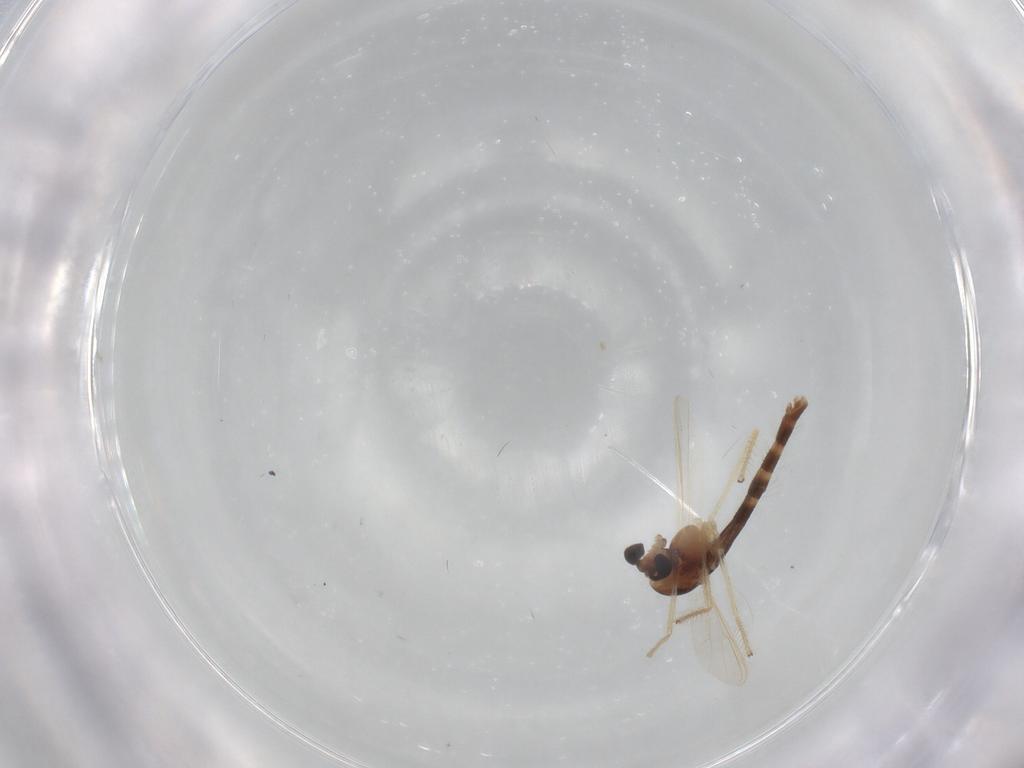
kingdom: Animalia
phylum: Arthropoda
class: Insecta
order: Diptera
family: Chironomidae
